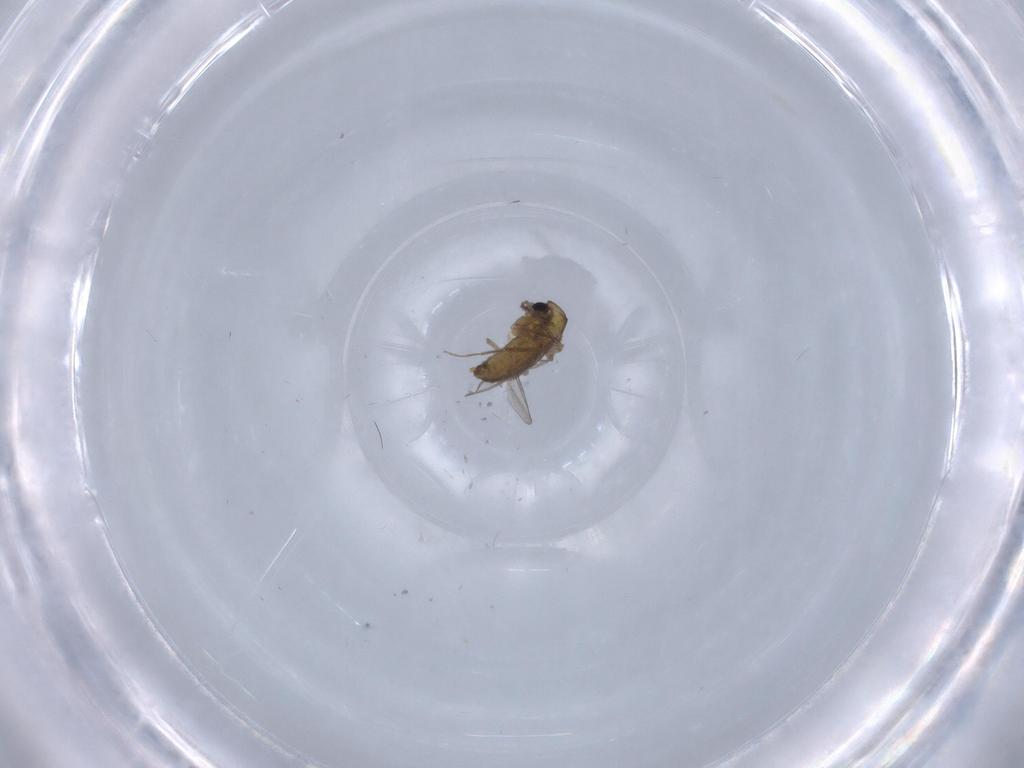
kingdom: Animalia
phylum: Arthropoda
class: Insecta
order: Diptera
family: Chironomidae
